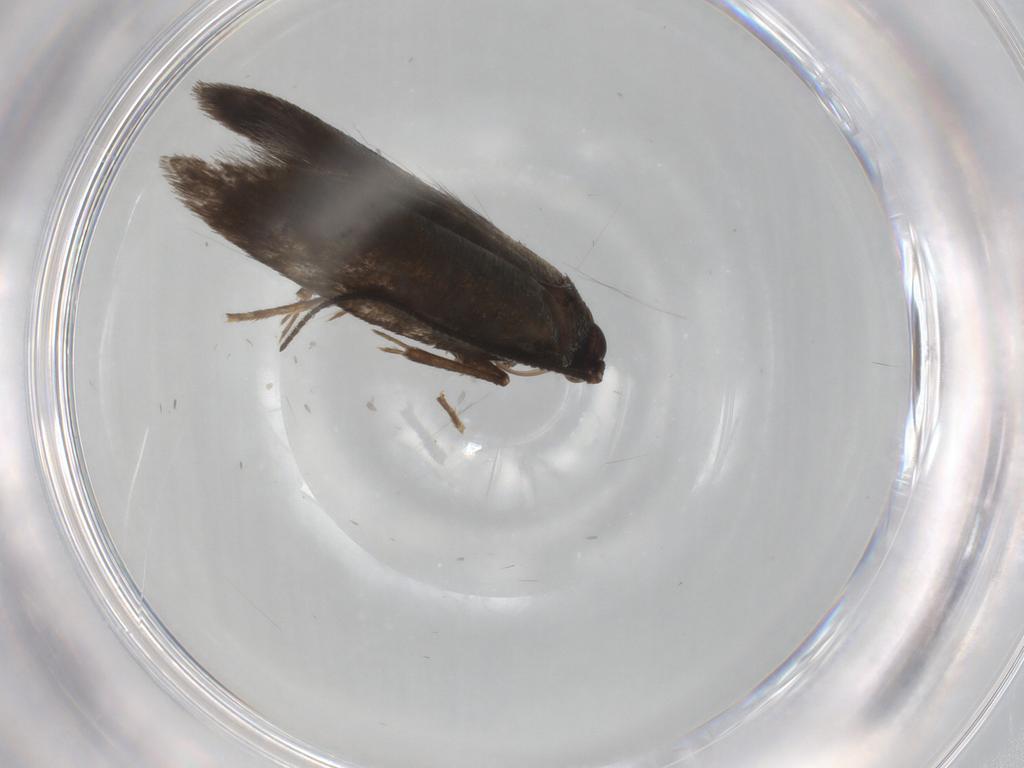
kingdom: Animalia
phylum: Arthropoda
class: Insecta
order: Lepidoptera
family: Argyresthiidae
